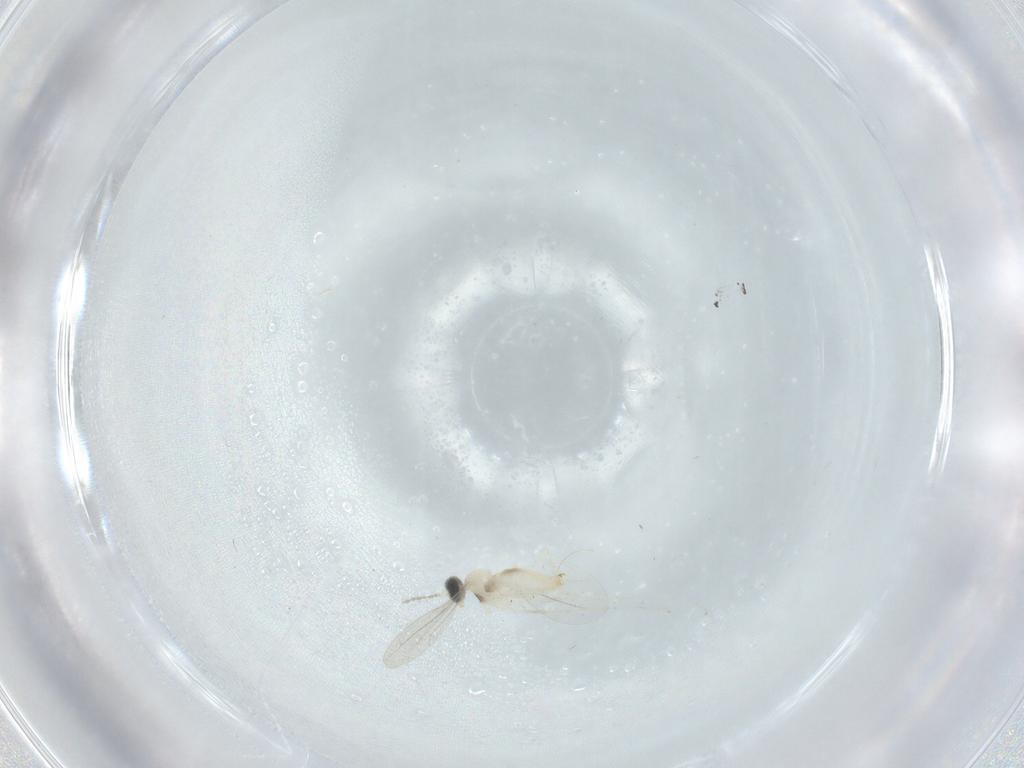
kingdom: Animalia
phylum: Arthropoda
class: Insecta
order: Diptera
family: Cecidomyiidae
